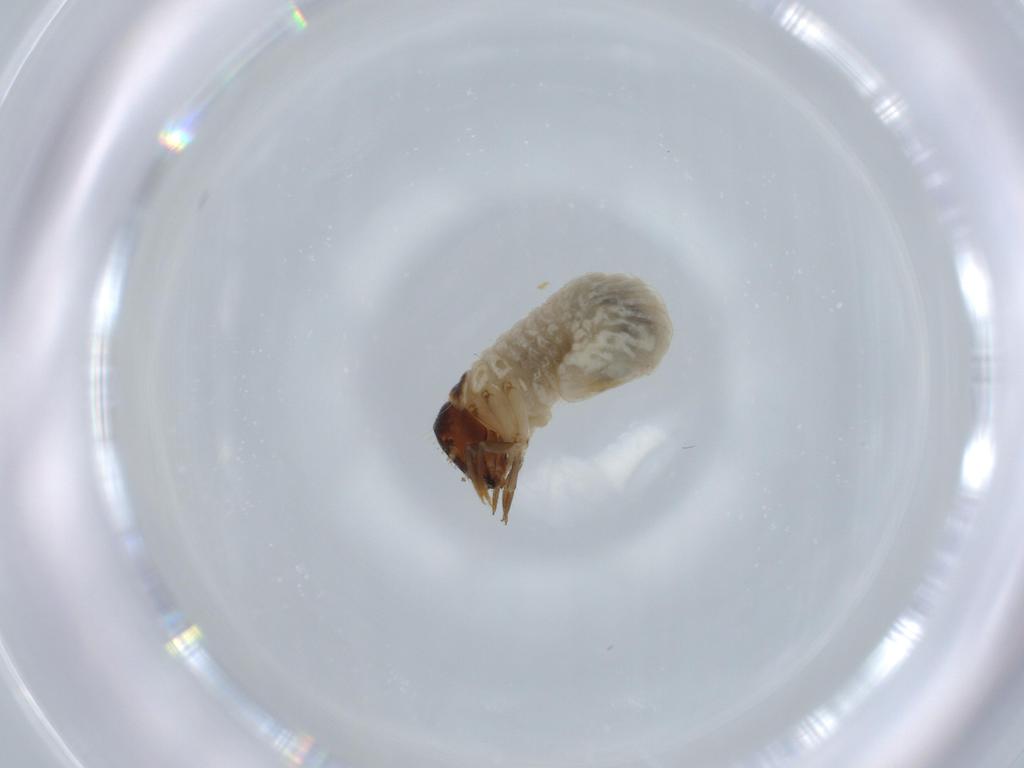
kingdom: Animalia
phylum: Arthropoda
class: Insecta
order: Coleoptera
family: Chrysomelidae
